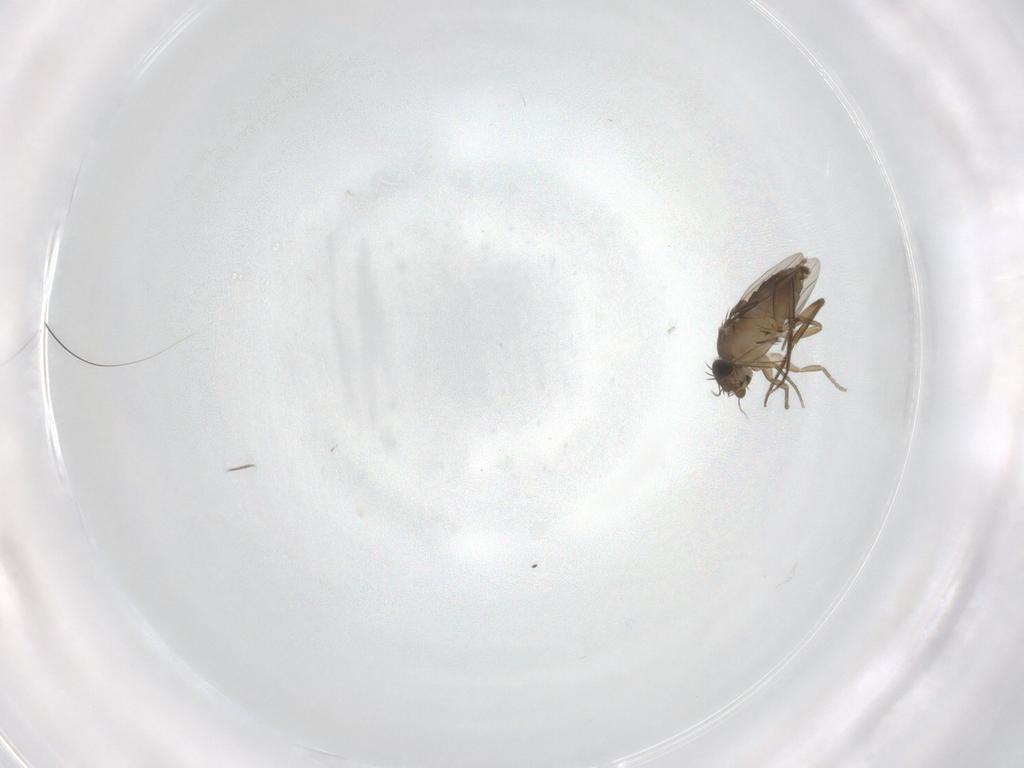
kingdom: Animalia
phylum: Arthropoda
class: Insecta
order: Diptera
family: Phoridae
